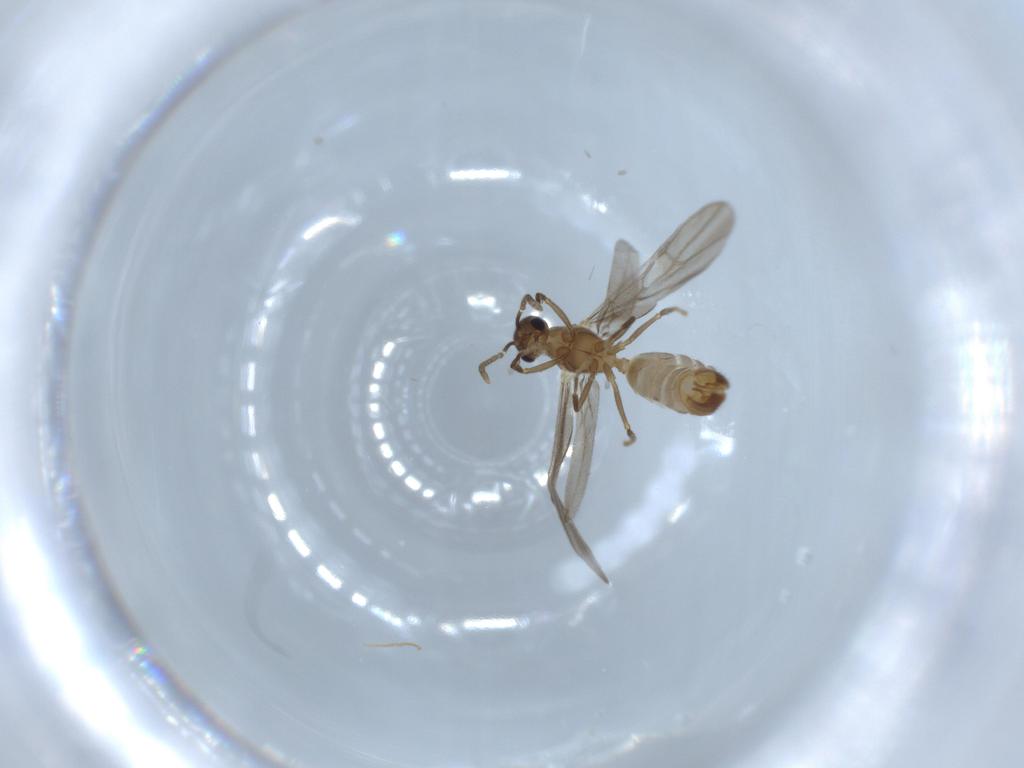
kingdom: Animalia
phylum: Arthropoda
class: Insecta
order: Hymenoptera
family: Formicidae
